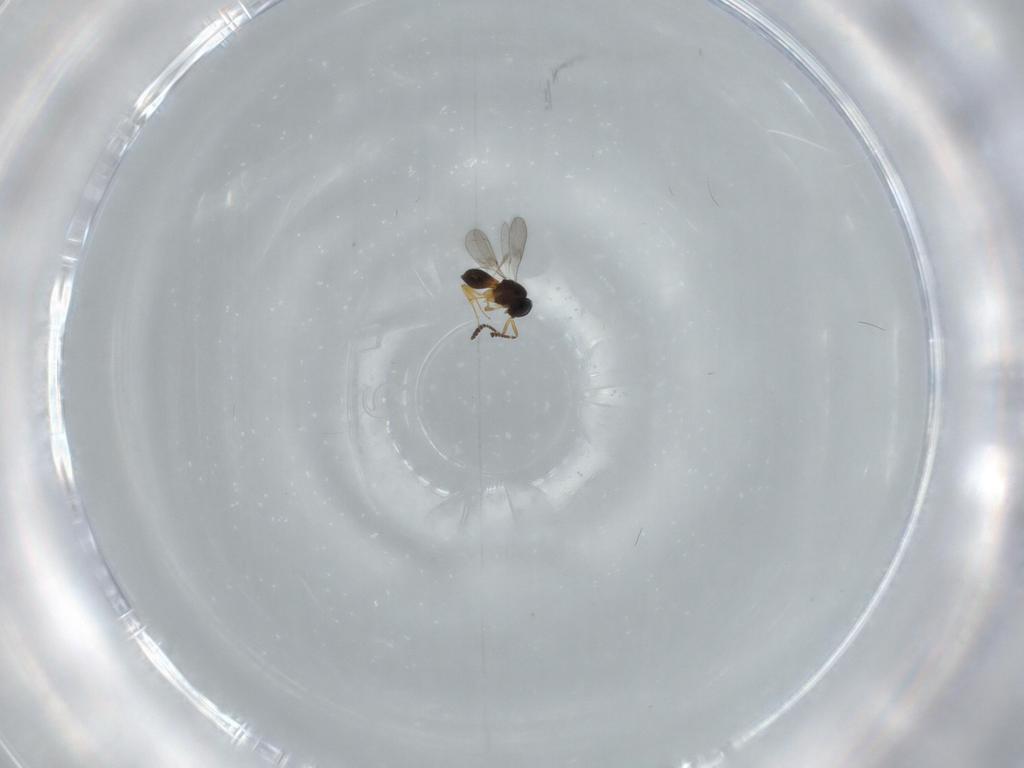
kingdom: Animalia
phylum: Arthropoda
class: Insecta
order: Hymenoptera
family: Scelionidae
